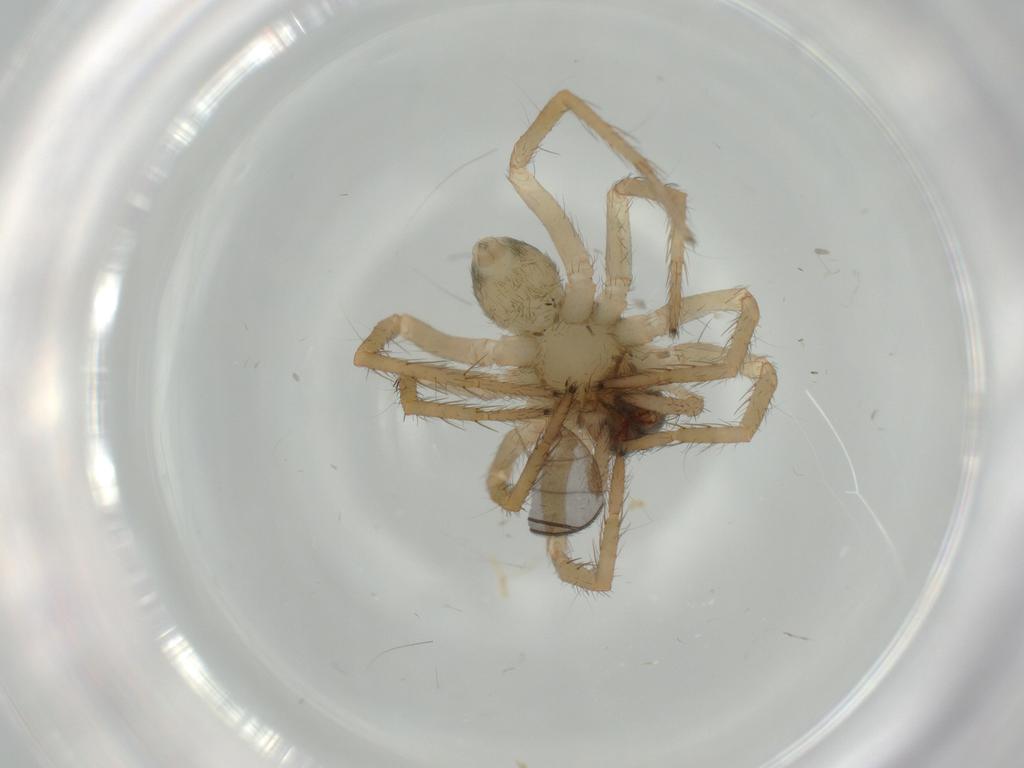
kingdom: Animalia
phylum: Arthropoda
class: Arachnida
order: Araneae
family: Lycosidae
